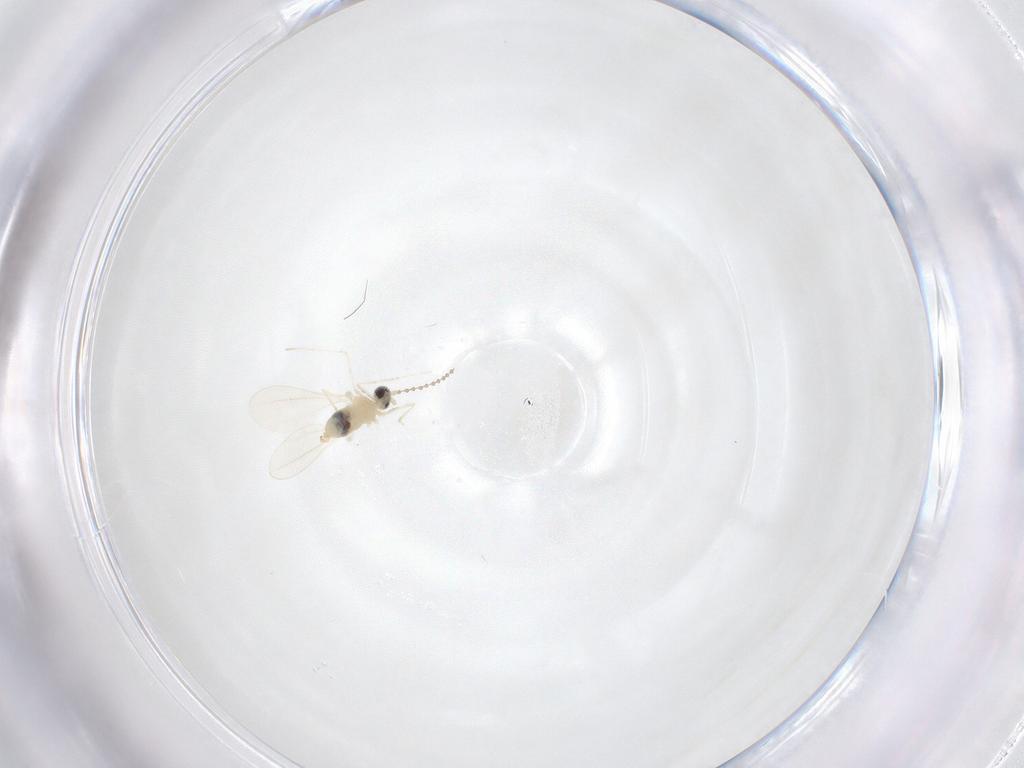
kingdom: Animalia
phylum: Arthropoda
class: Insecta
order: Diptera
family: Cecidomyiidae
